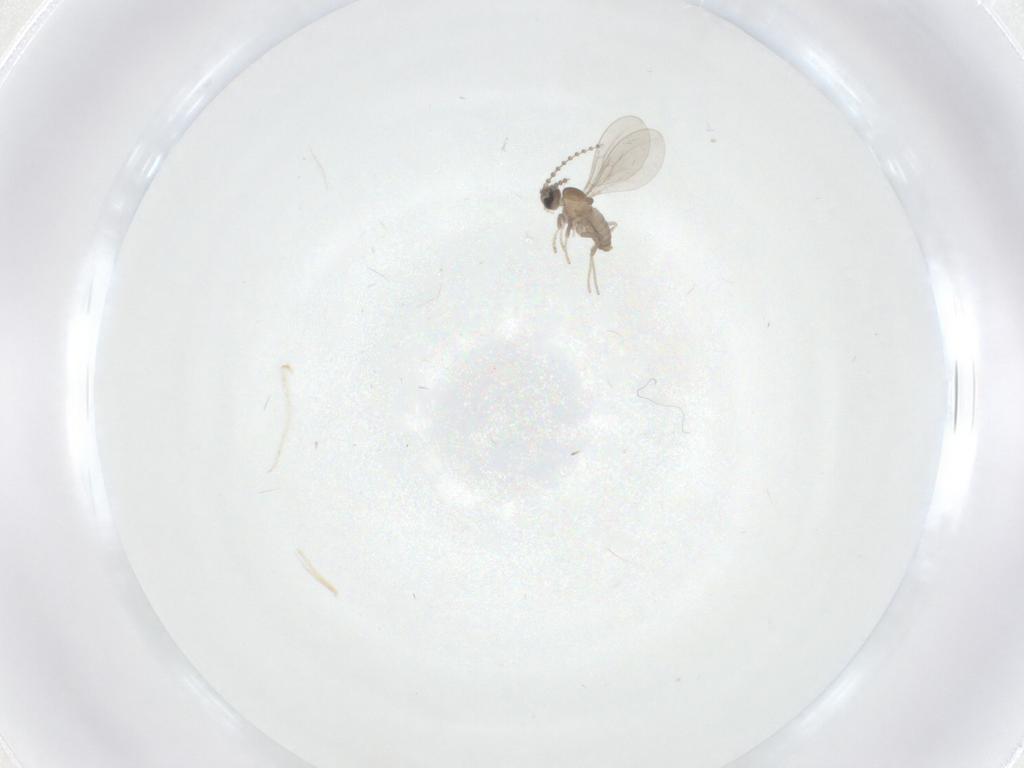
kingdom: Animalia
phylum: Arthropoda
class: Insecta
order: Diptera
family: Cecidomyiidae
